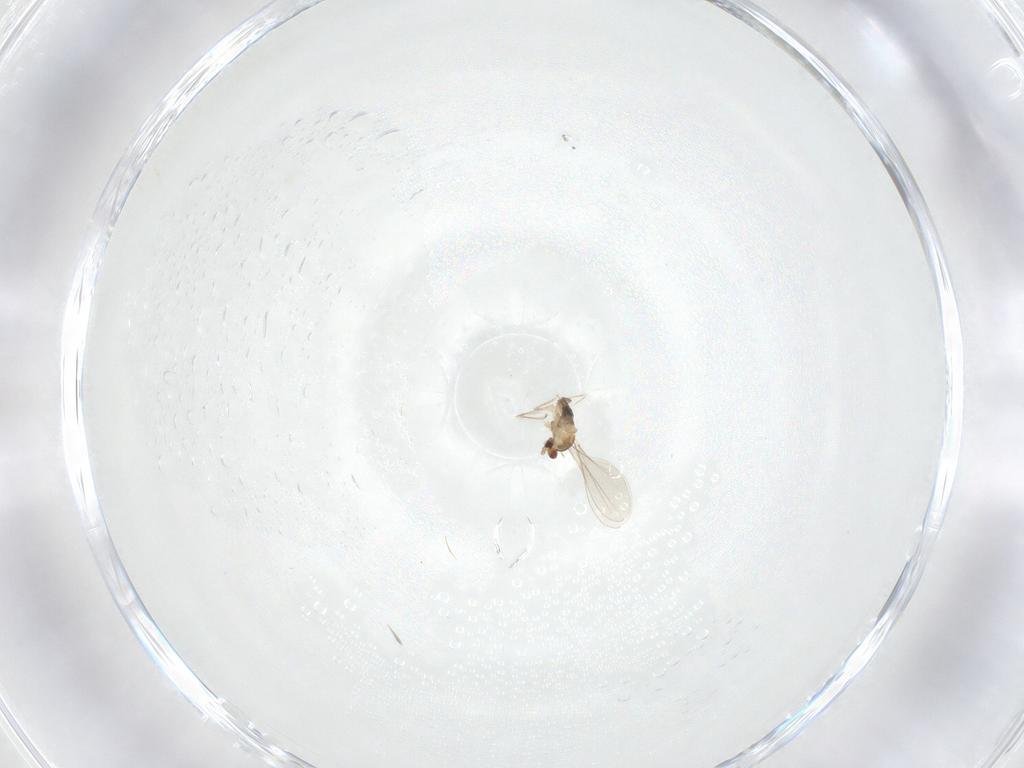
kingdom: Animalia
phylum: Arthropoda
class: Insecta
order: Diptera
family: Cecidomyiidae
